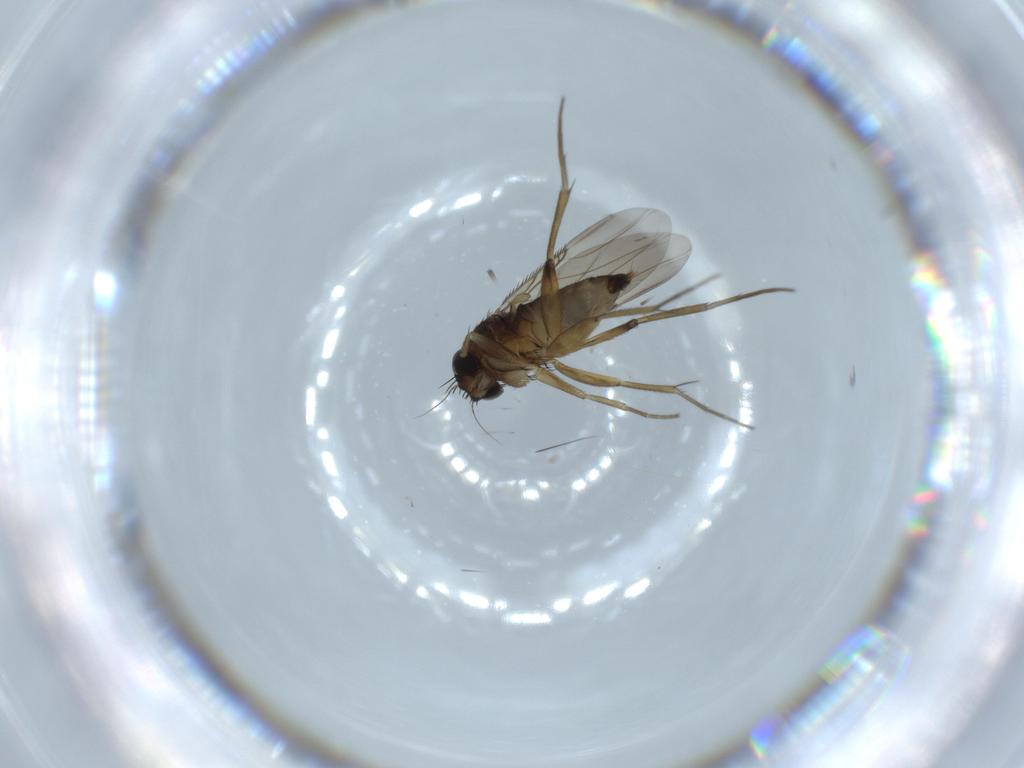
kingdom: Animalia
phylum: Arthropoda
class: Insecta
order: Diptera
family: Phoridae
